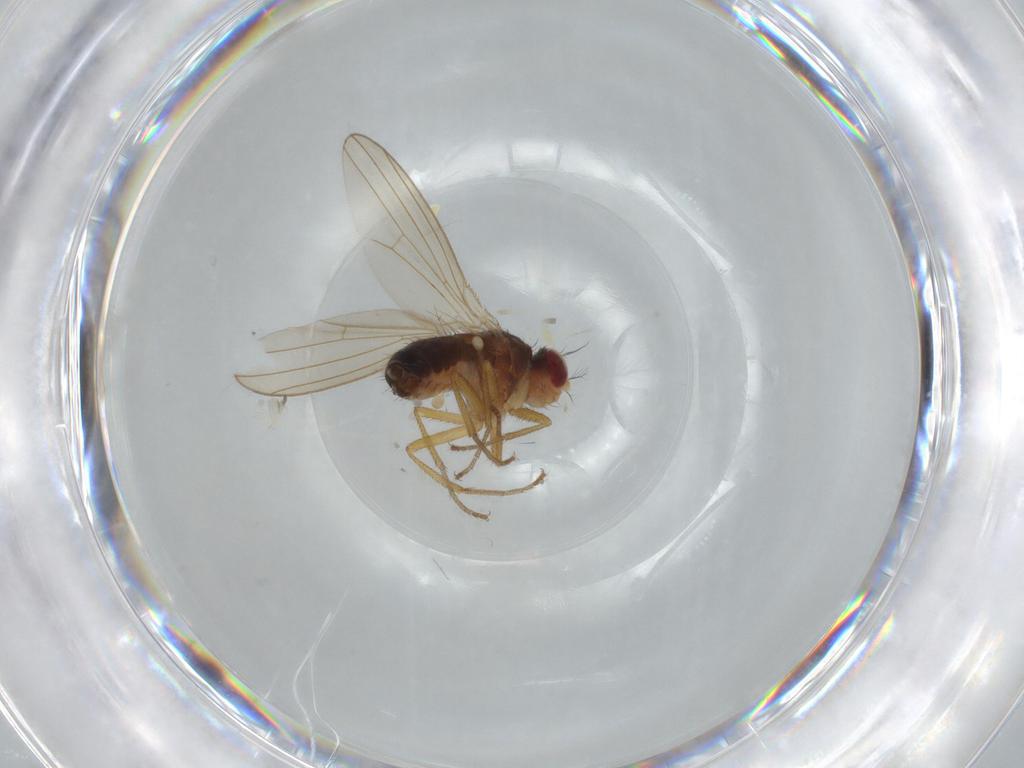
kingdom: Animalia
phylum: Arthropoda
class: Insecta
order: Diptera
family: Drosophilidae
